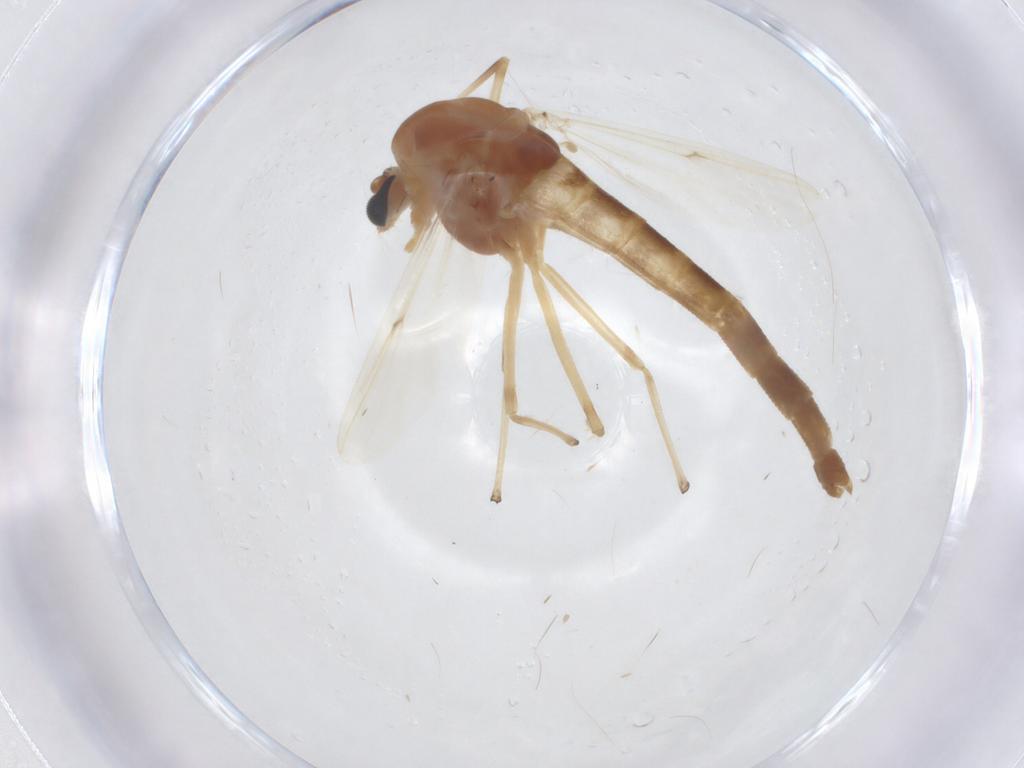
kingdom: Animalia
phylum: Arthropoda
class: Insecta
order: Diptera
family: Chironomidae
